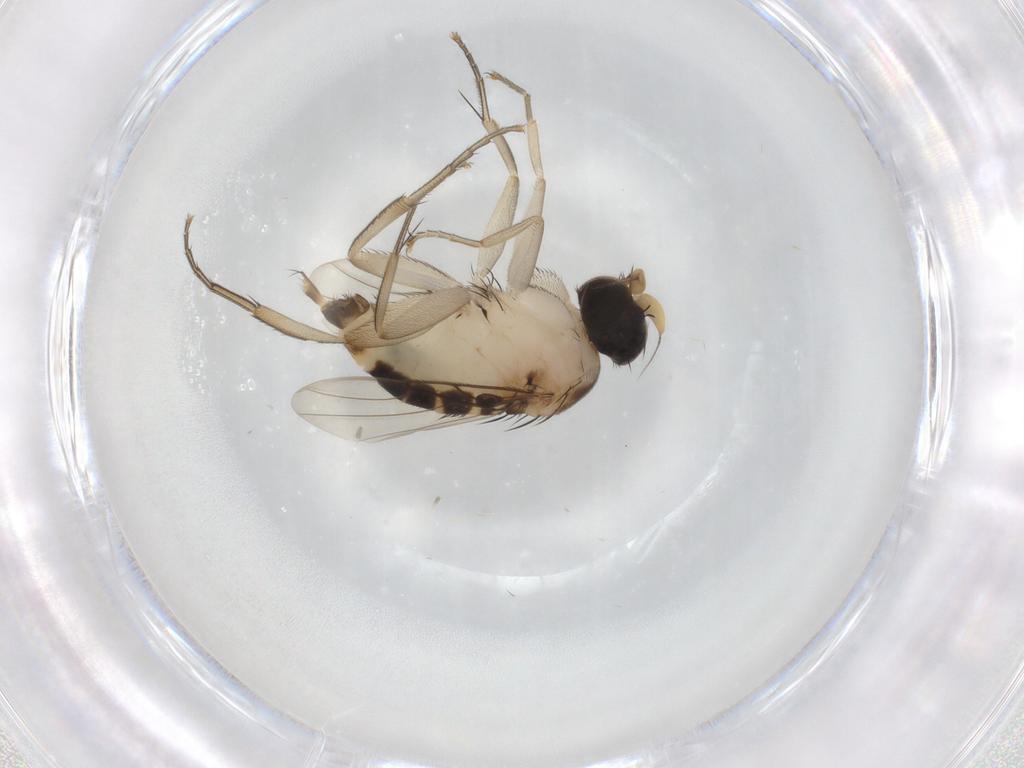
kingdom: Animalia
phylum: Arthropoda
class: Insecta
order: Diptera
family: Phoridae
